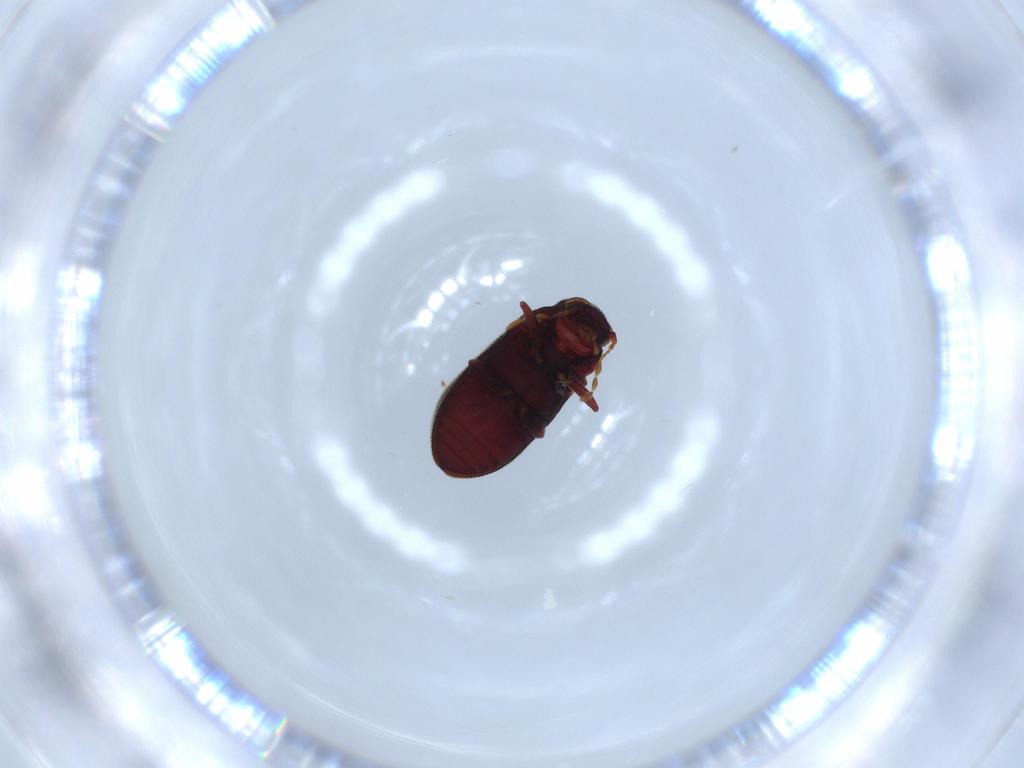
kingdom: Animalia
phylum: Arthropoda
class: Insecta
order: Coleoptera
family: Anobiidae
